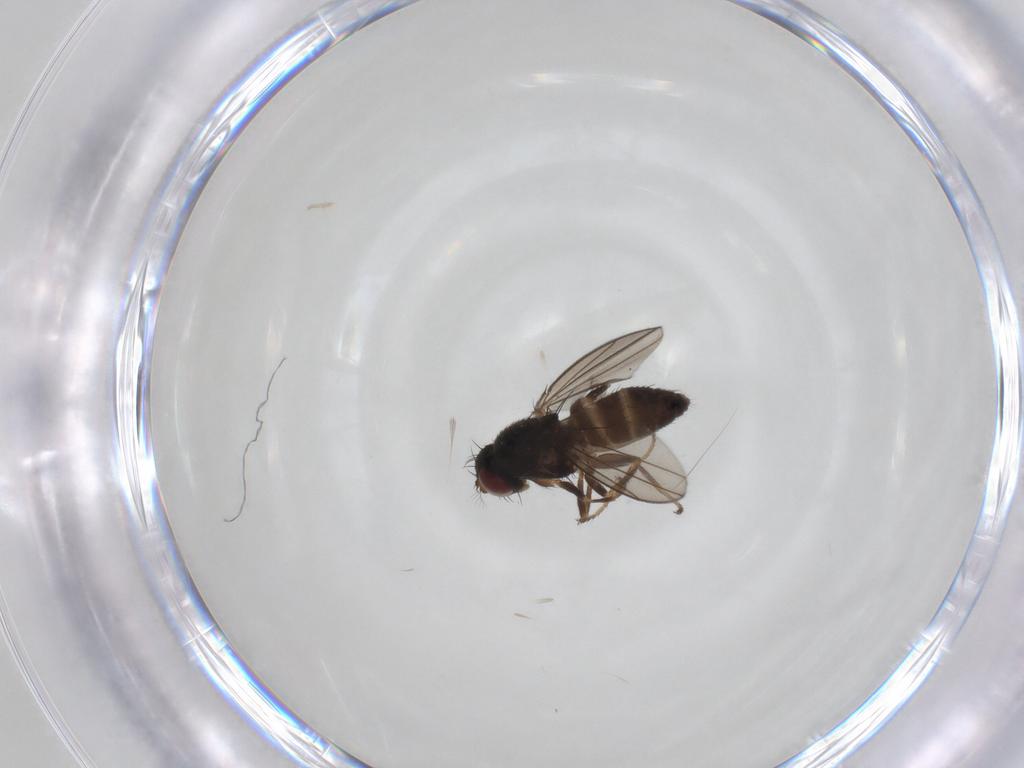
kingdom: Animalia
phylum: Arthropoda
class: Insecta
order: Diptera
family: Ephydridae
